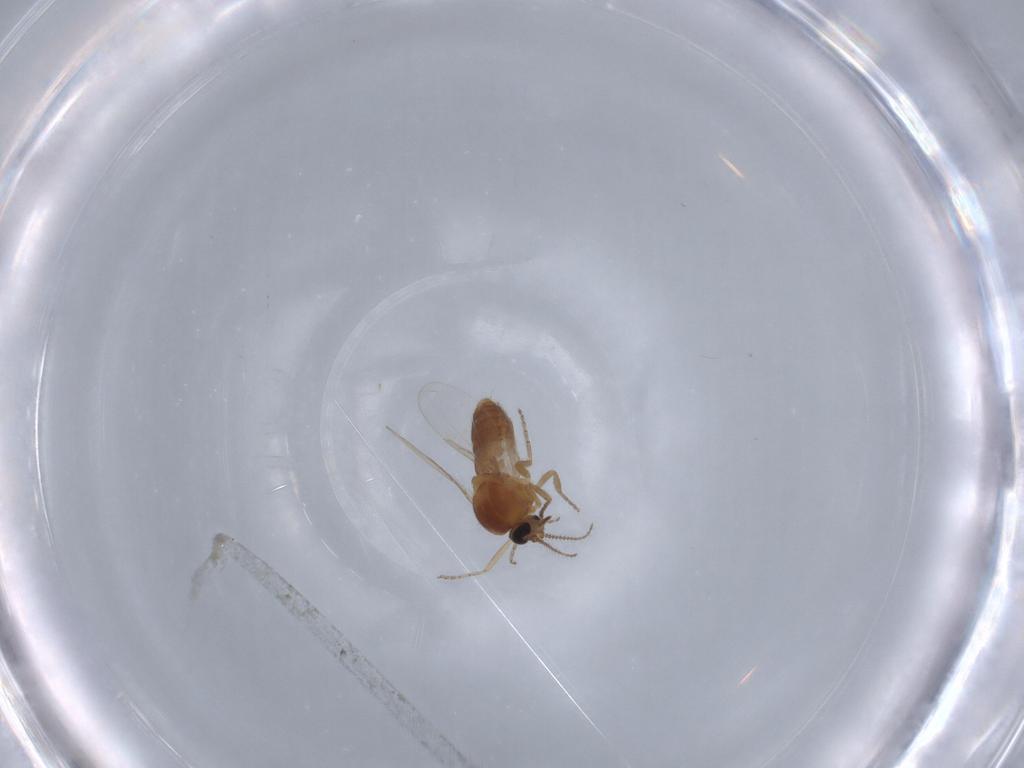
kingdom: Animalia
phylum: Arthropoda
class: Insecta
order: Diptera
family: Ceratopogonidae
